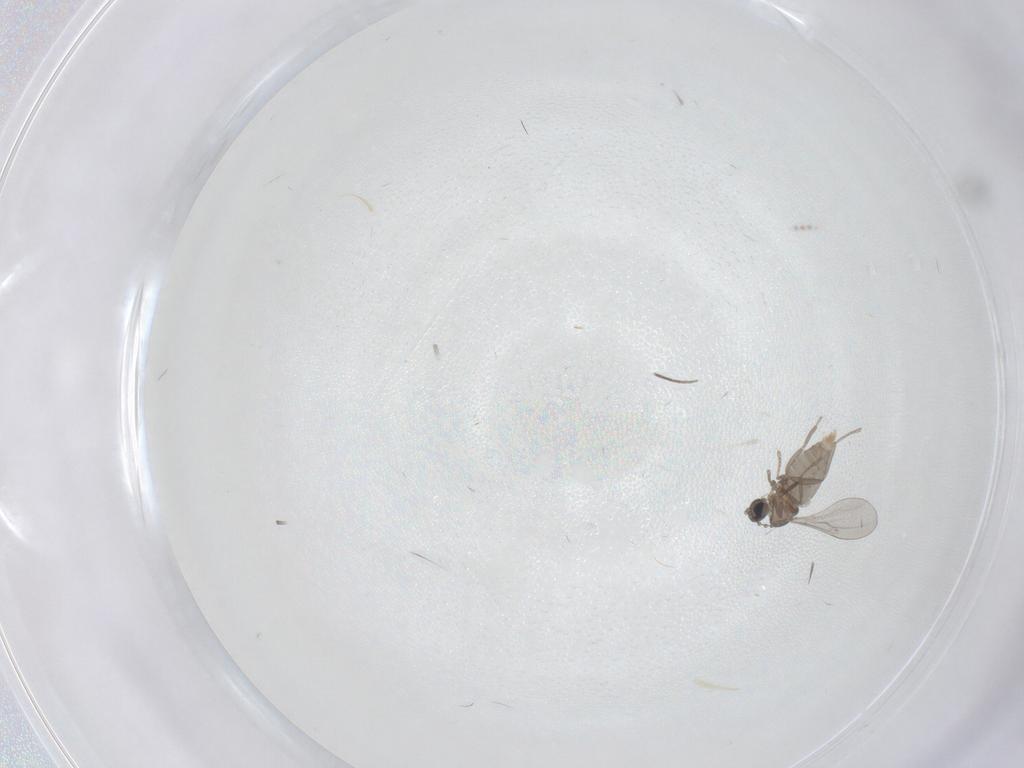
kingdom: Animalia
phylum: Arthropoda
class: Insecta
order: Diptera
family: Cecidomyiidae
